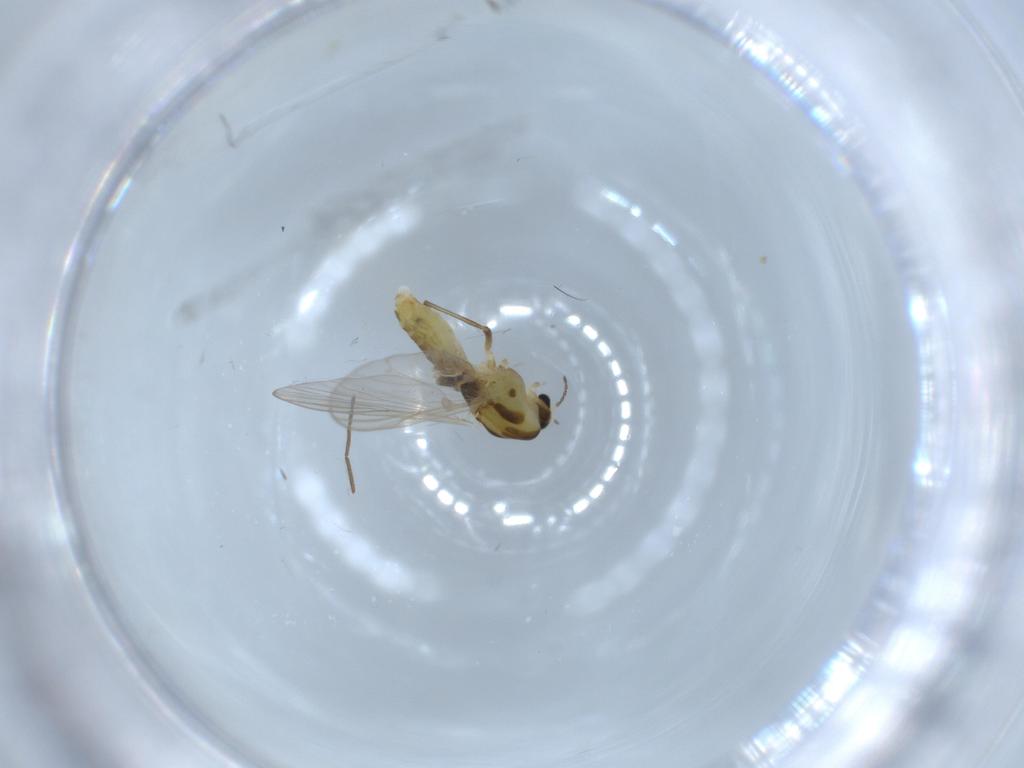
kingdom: Animalia
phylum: Arthropoda
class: Insecta
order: Diptera
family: Chironomidae
